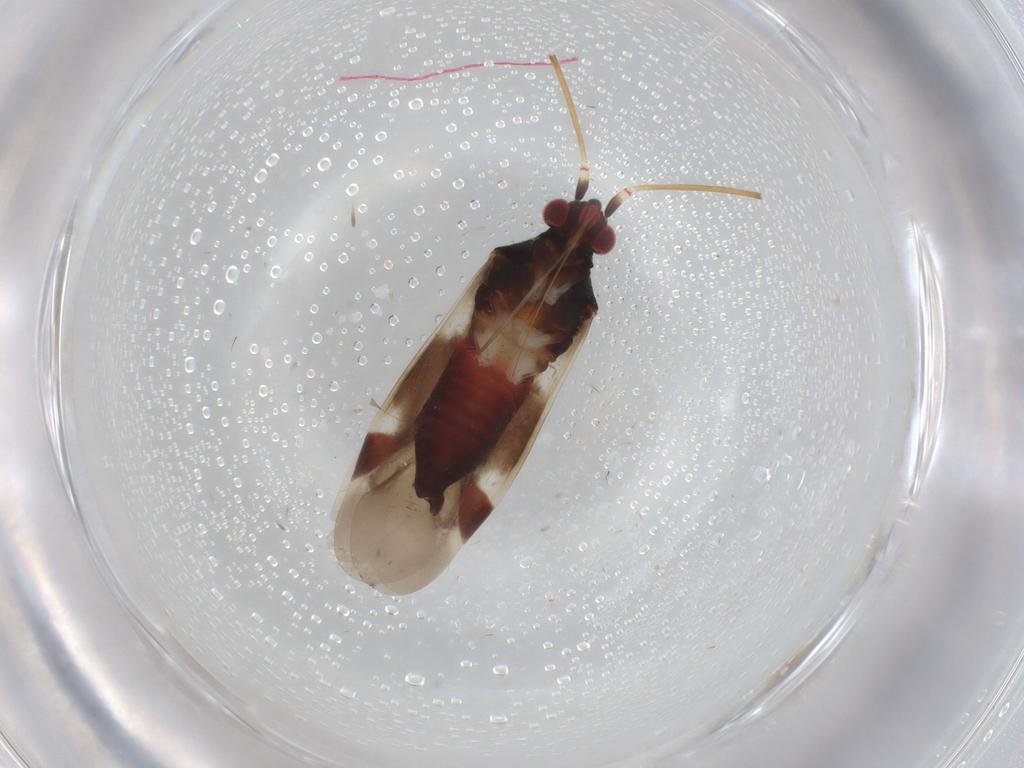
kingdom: Animalia
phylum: Arthropoda
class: Insecta
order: Hemiptera
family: Miridae
